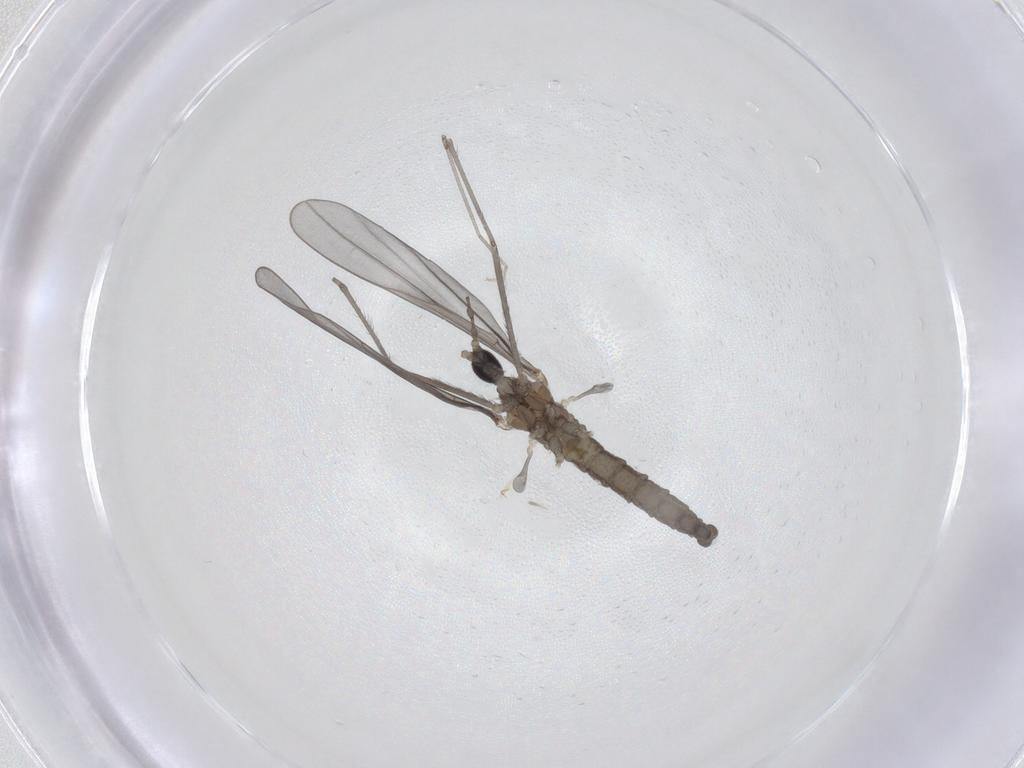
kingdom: Animalia
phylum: Arthropoda
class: Insecta
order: Diptera
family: Cecidomyiidae
